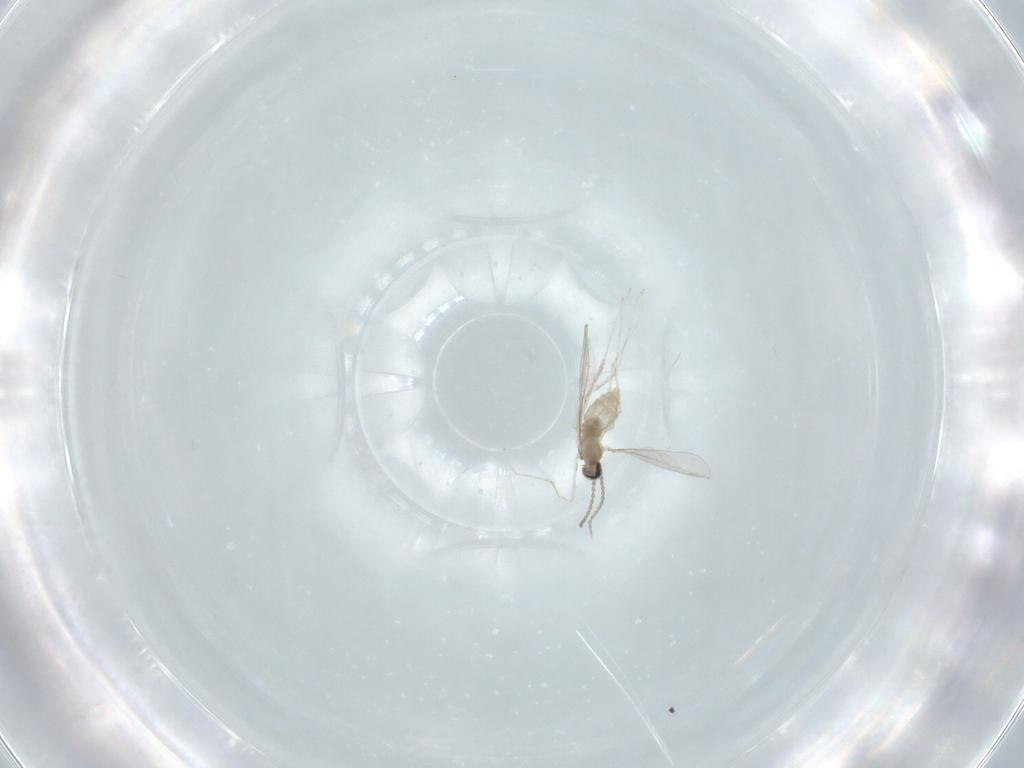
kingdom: Animalia
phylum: Arthropoda
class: Insecta
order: Diptera
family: Cecidomyiidae
